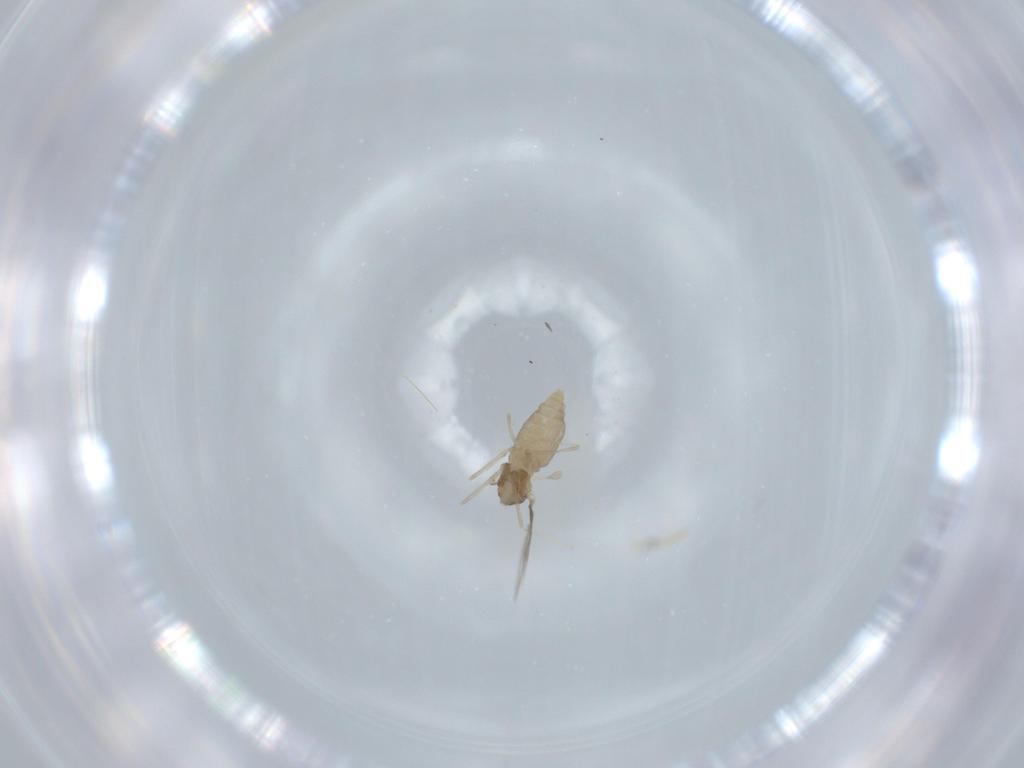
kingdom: Animalia
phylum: Arthropoda
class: Insecta
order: Diptera
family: Cecidomyiidae
